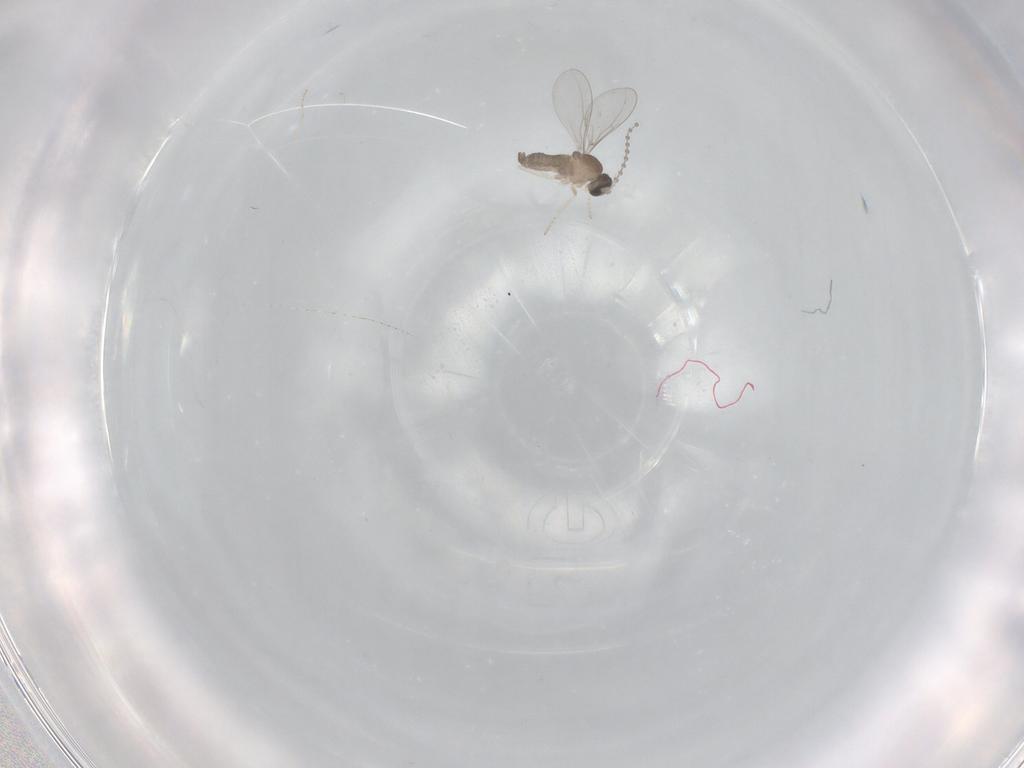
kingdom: Animalia
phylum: Arthropoda
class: Insecta
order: Diptera
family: Cecidomyiidae
